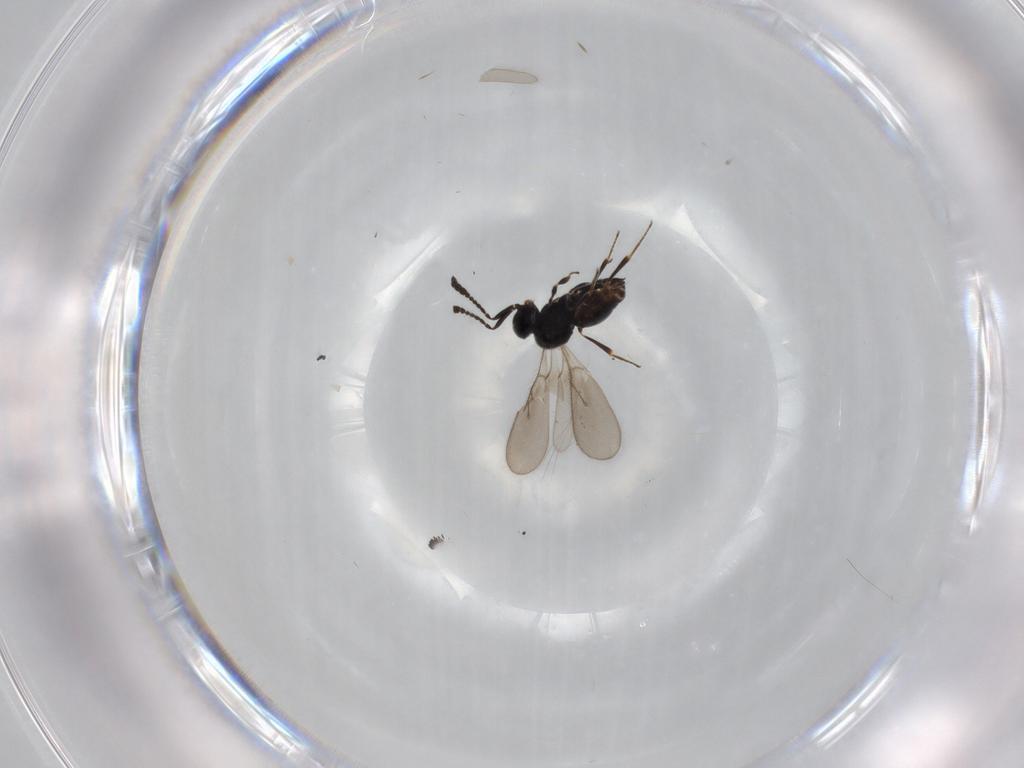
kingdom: Animalia
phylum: Arthropoda
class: Insecta
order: Hymenoptera
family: Scelionidae
